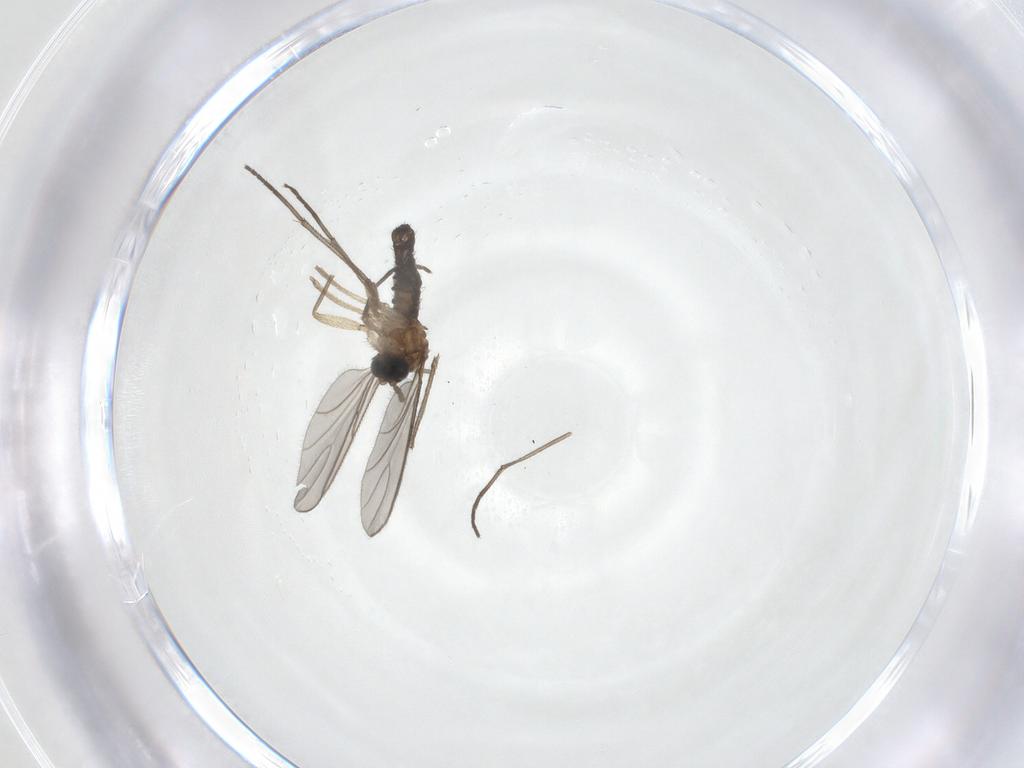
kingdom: Animalia
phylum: Arthropoda
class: Insecta
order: Diptera
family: Sciaridae
